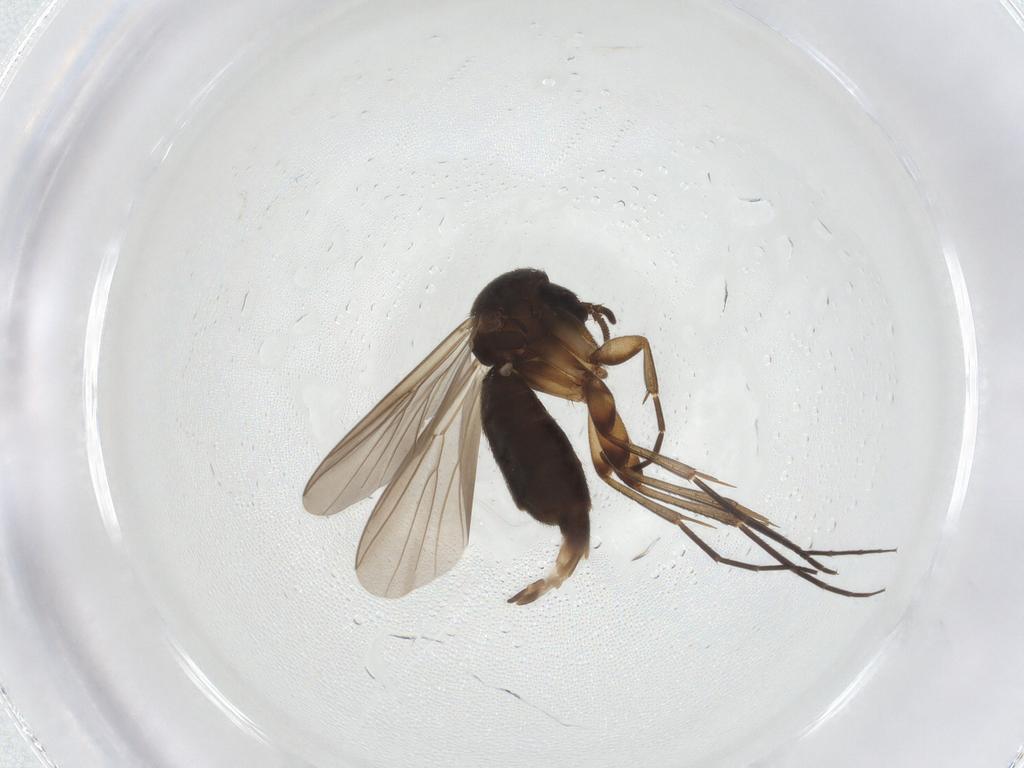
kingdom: Animalia
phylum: Arthropoda
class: Insecta
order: Diptera
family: Mycetophilidae
